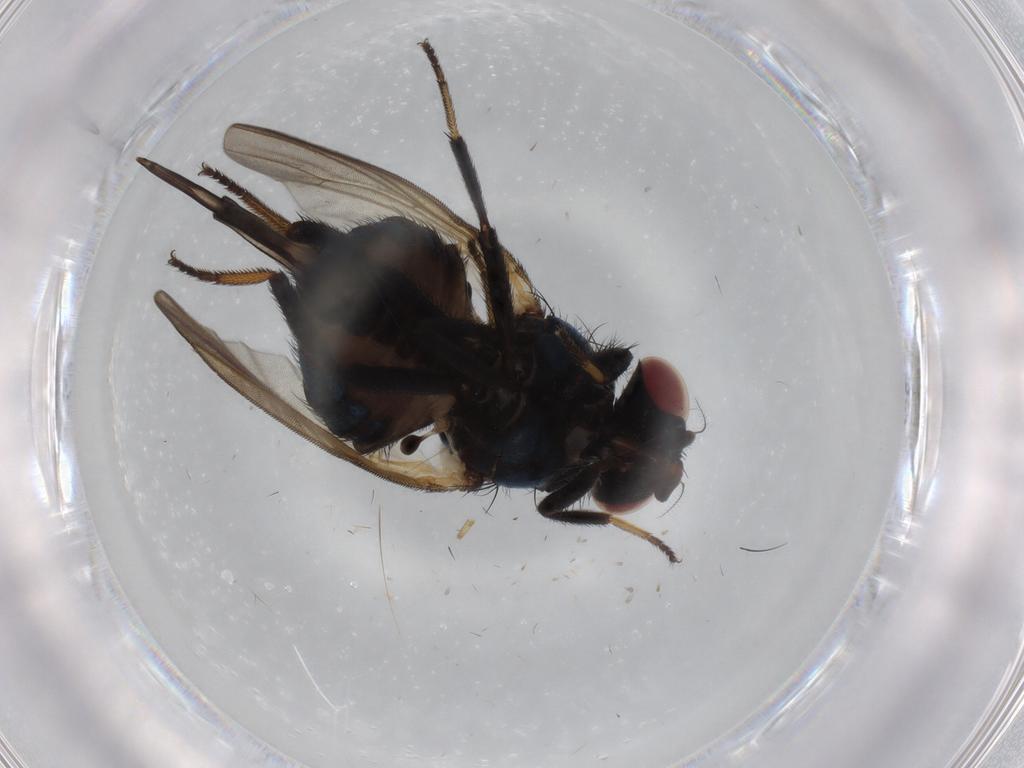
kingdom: Animalia
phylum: Arthropoda
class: Insecta
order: Diptera
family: Lonchaeidae
